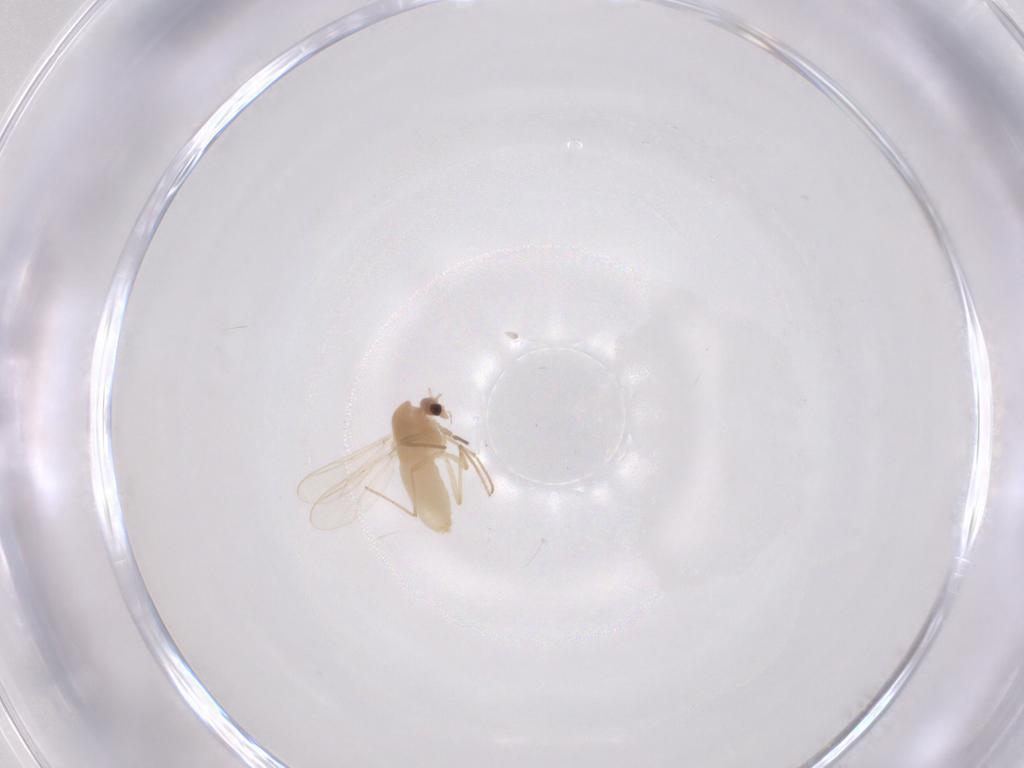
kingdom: Animalia
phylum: Arthropoda
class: Insecta
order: Diptera
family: Chironomidae
